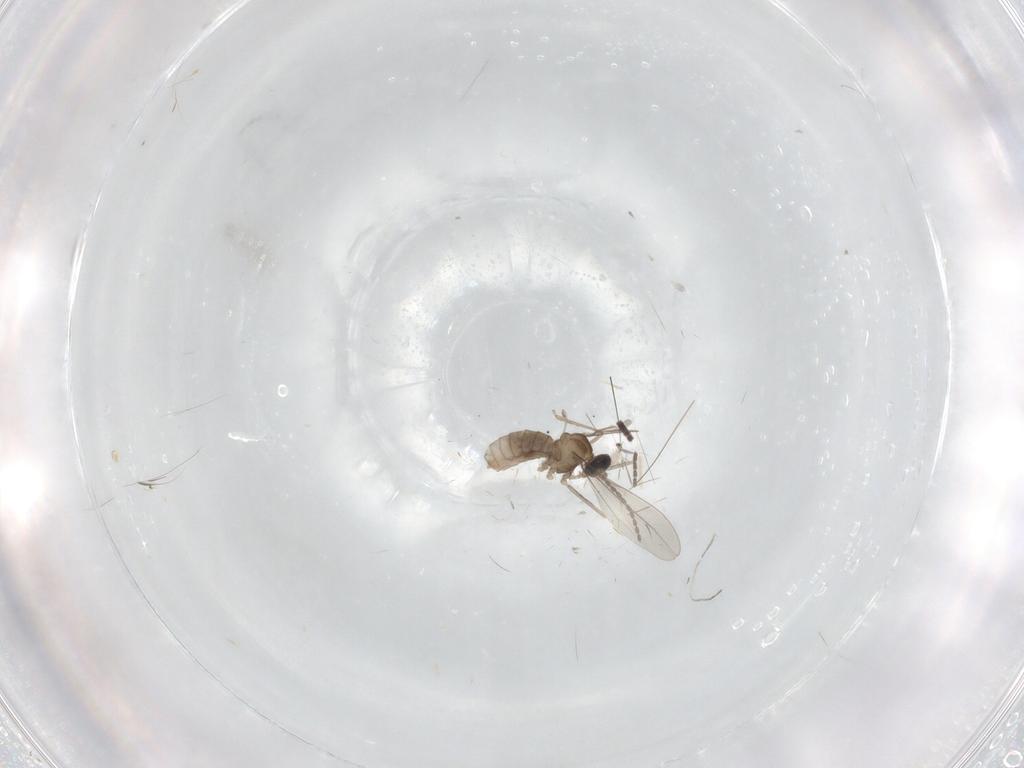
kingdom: Animalia
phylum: Arthropoda
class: Insecta
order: Diptera
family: Cecidomyiidae
